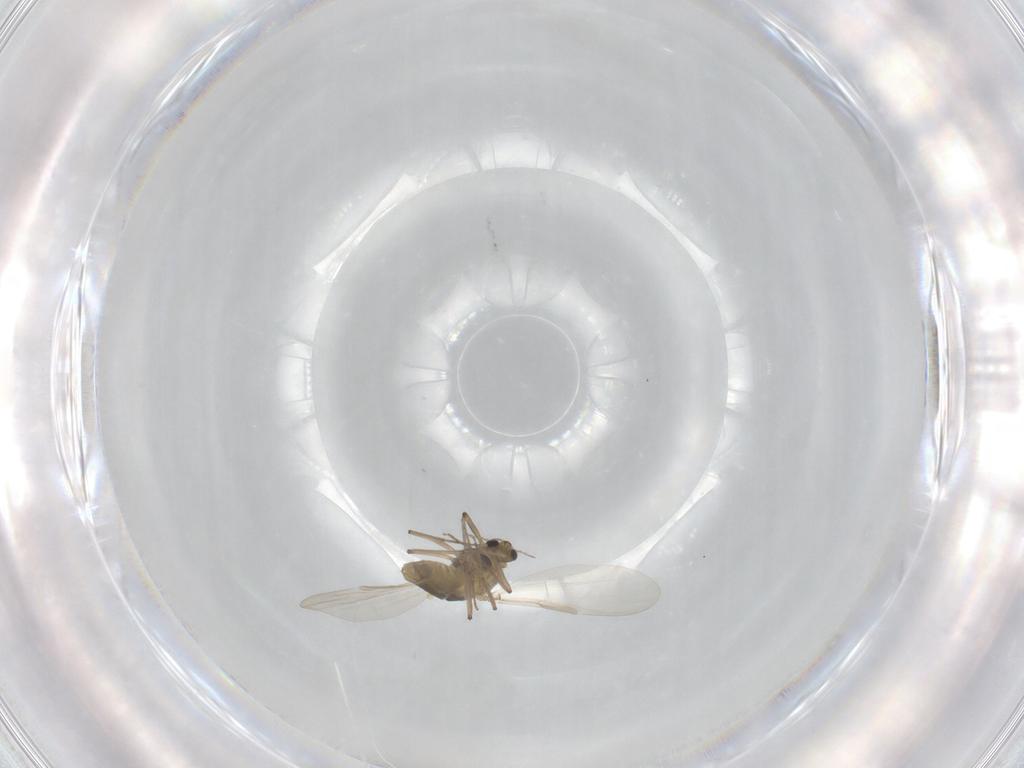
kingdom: Animalia
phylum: Arthropoda
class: Insecta
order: Diptera
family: Chironomidae
